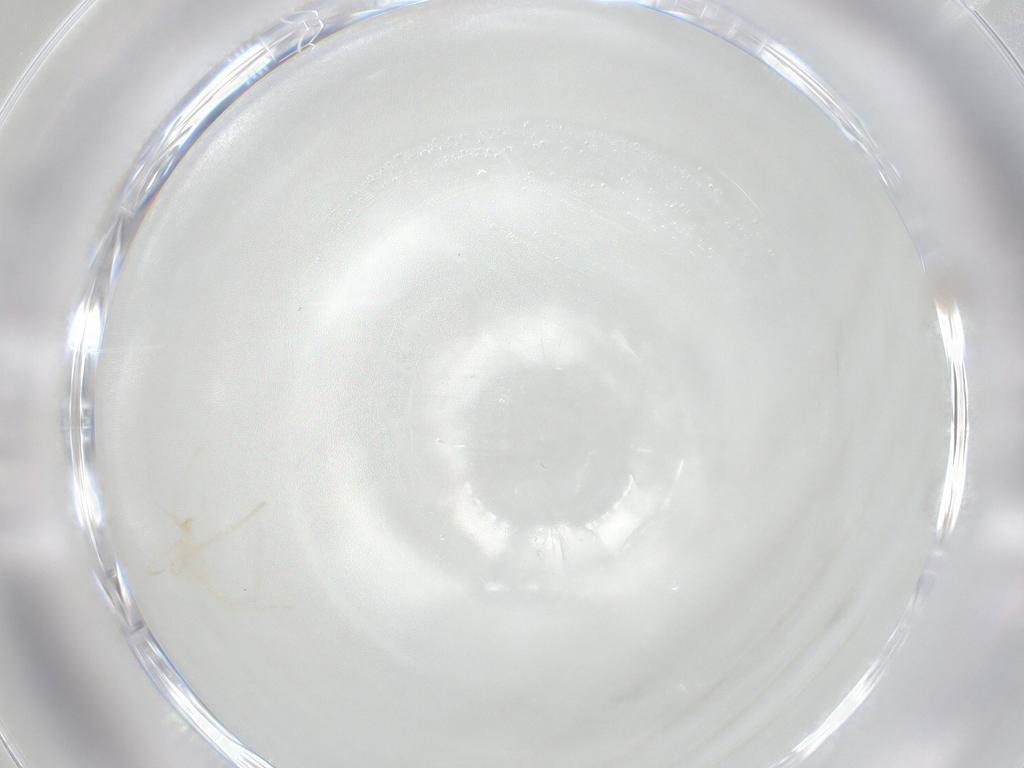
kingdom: Animalia
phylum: Arthropoda
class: Insecta
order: Psocodea
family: Amphipsocidae
